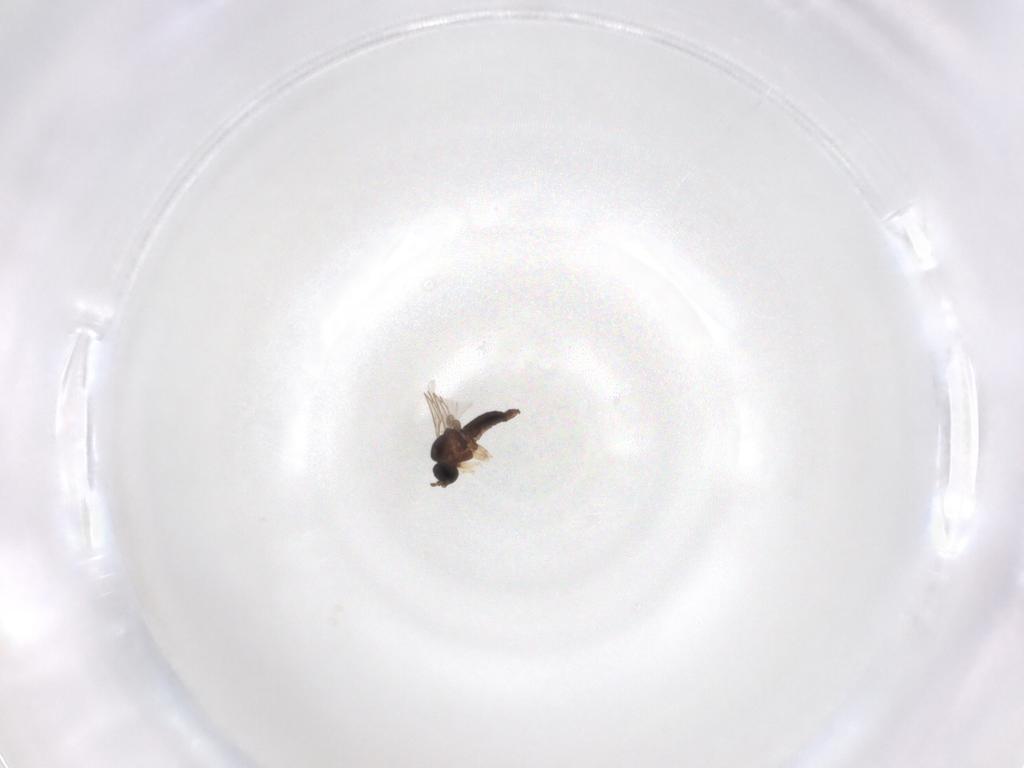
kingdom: Animalia
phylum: Arthropoda
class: Insecta
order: Diptera
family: Sciaridae
